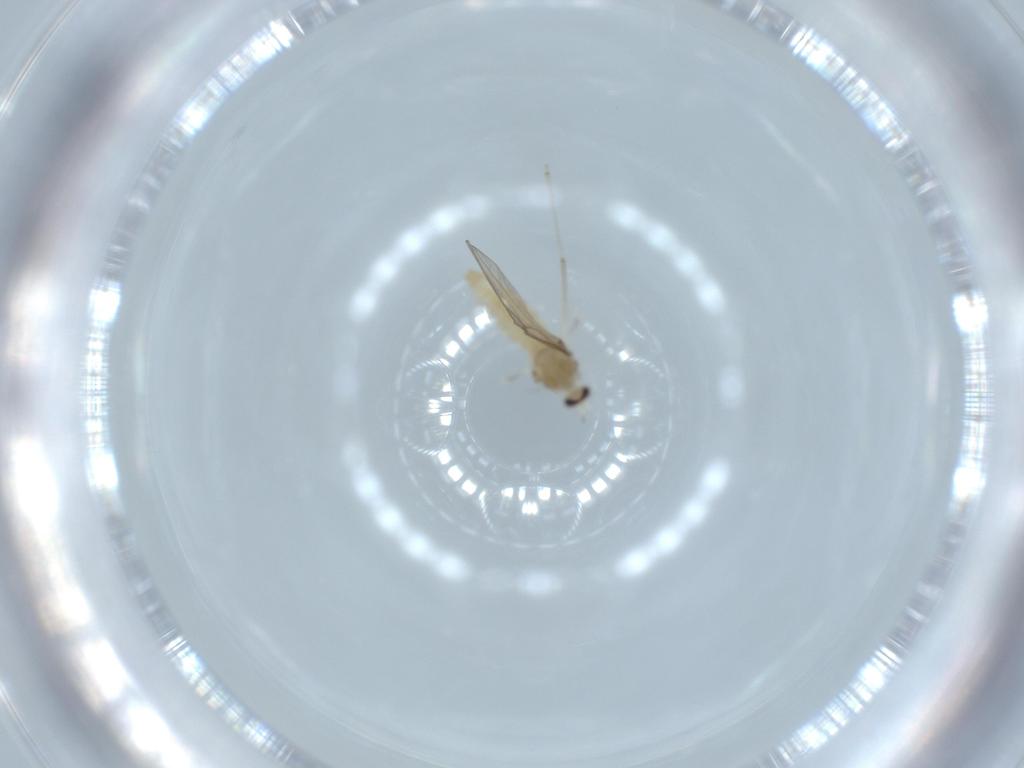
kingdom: Animalia
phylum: Arthropoda
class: Insecta
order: Diptera
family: Cecidomyiidae
